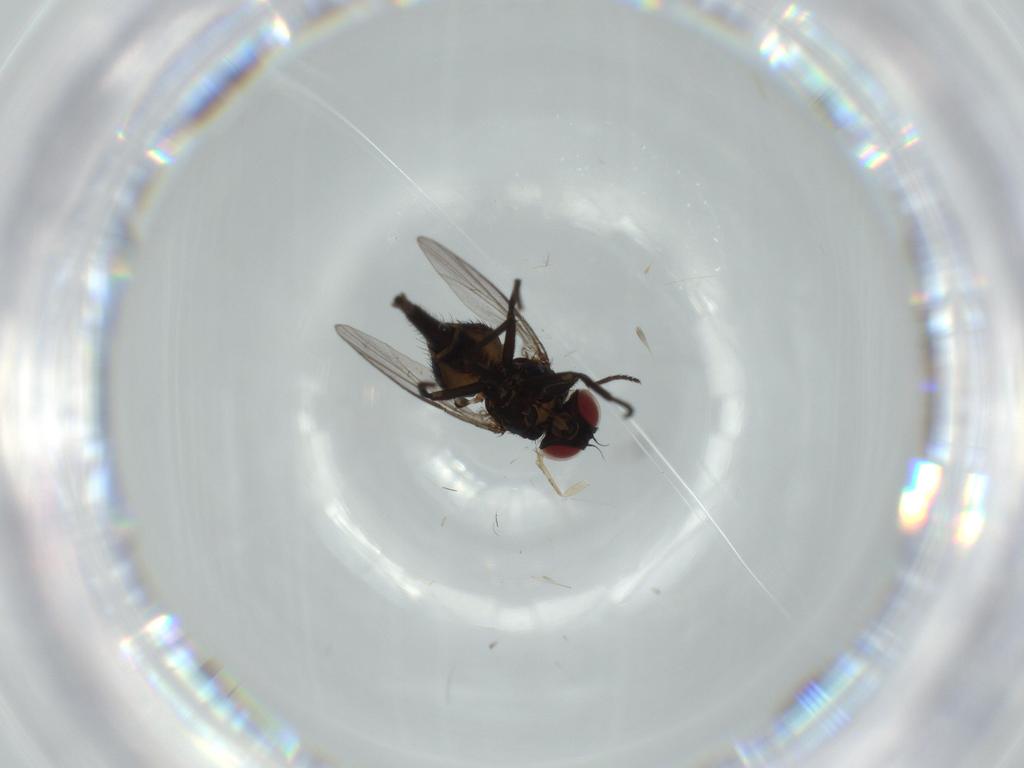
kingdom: Animalia
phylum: Arthropoda
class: Insecta
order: Diptera
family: Agromyzidae
